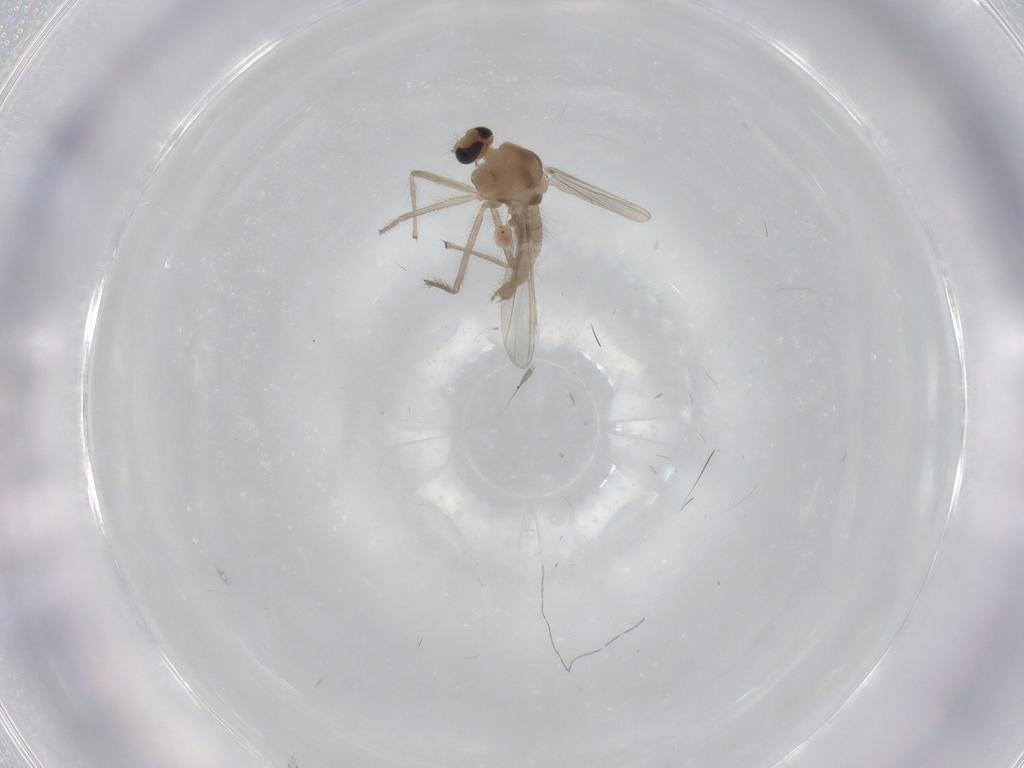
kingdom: Animalia
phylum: Arthropoda
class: Insecta
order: Diptera
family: Chironomidae
